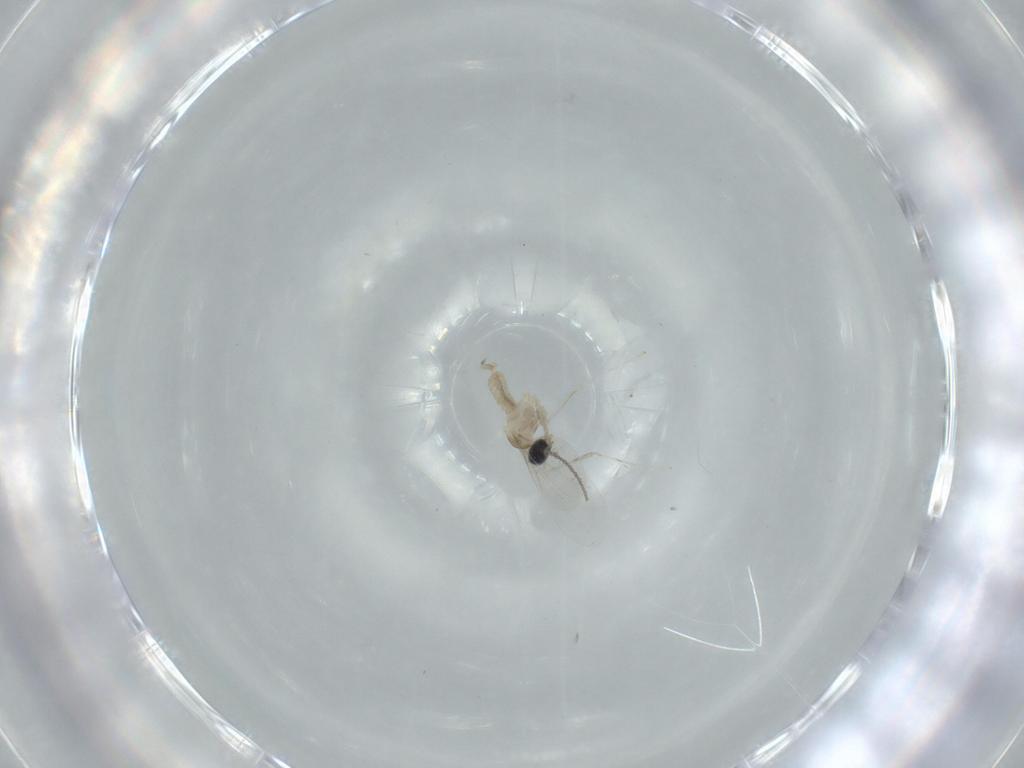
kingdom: Animalia
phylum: Arthropoda
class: Insecta
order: Diptera
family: Cecidomyiidae
